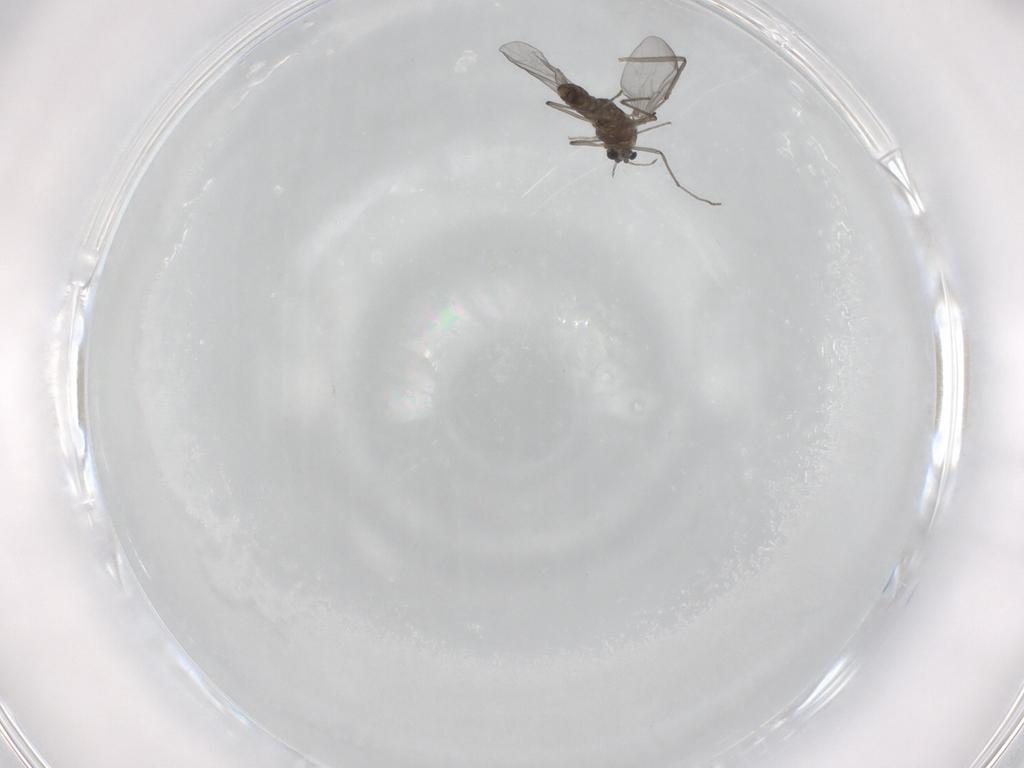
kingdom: Animalia
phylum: Arthropoda
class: Insecta
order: Diptera
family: Chironomidae
